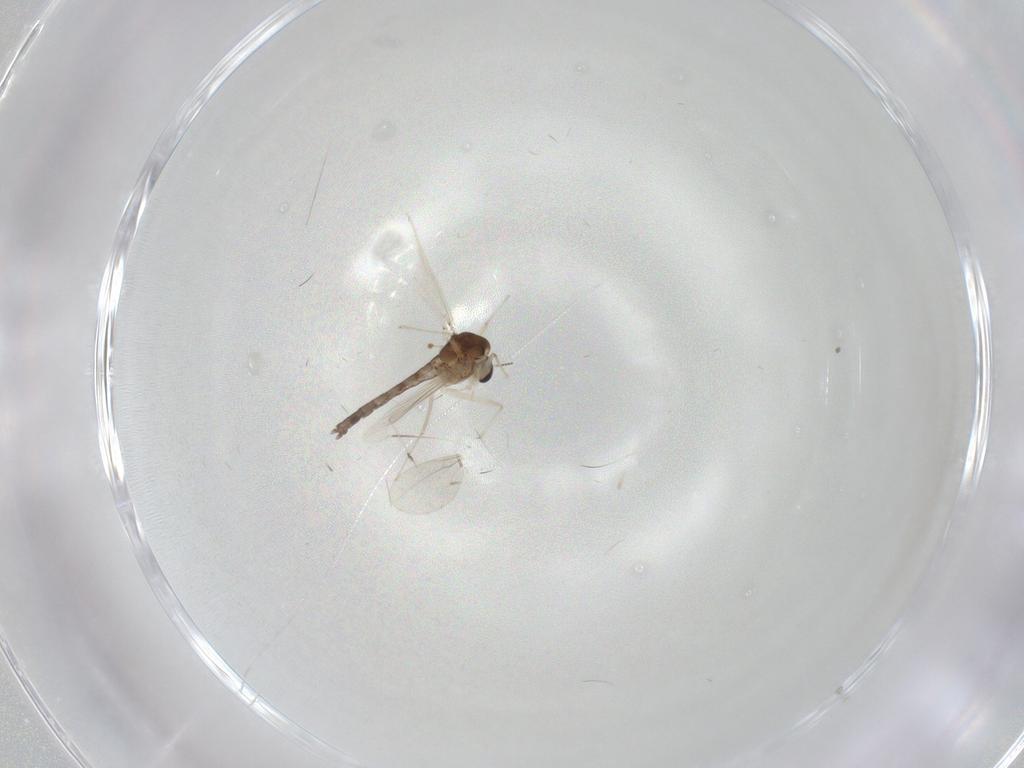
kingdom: Animalia
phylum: Arthropoda
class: Insecta
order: Diptera
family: Chironomidae
